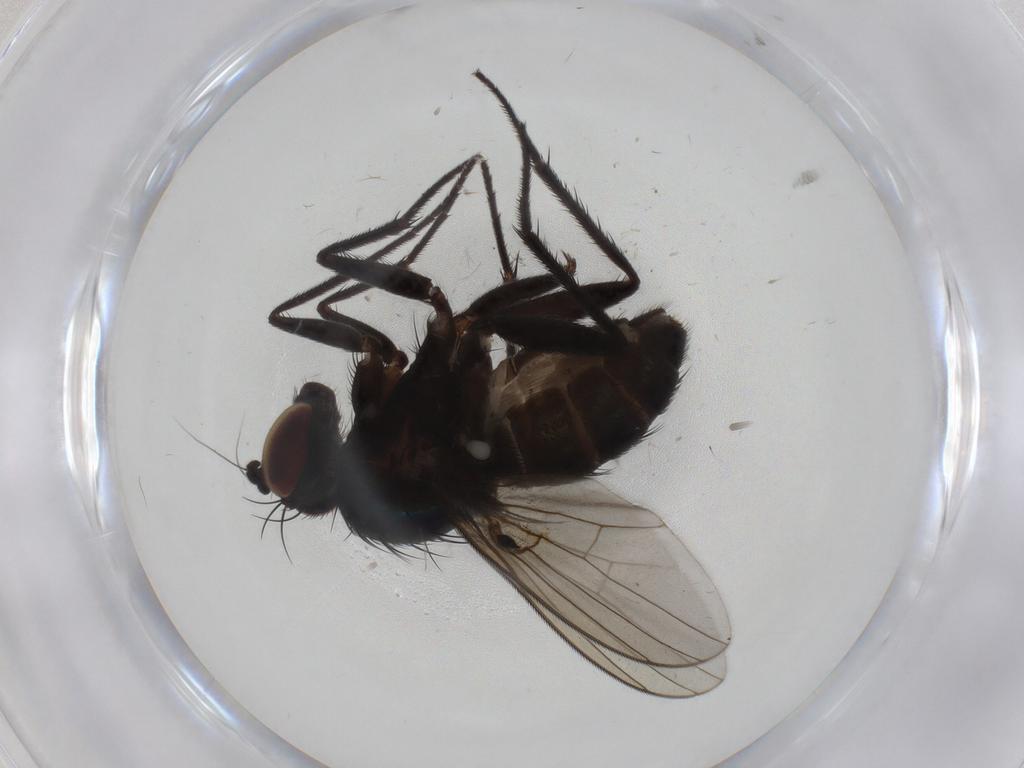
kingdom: Animalia
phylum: Arthropoda
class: Insecta
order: Diptera
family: Dolichopodidae
